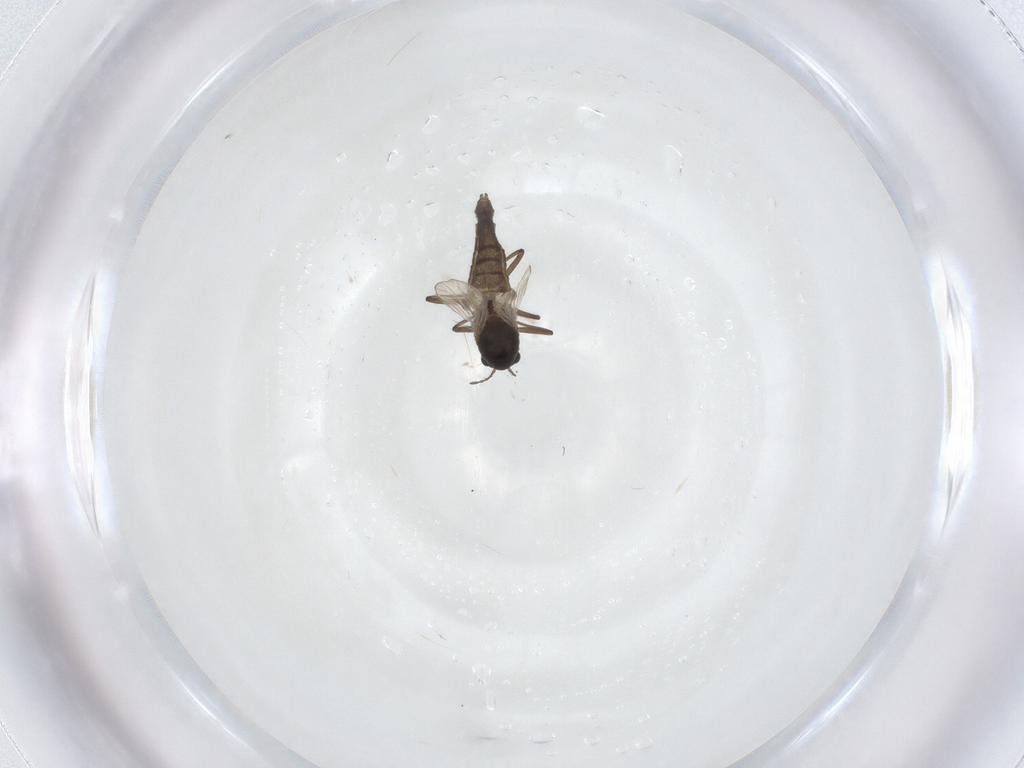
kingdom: Animalia
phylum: Arthropoda
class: Insecta
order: Diptera
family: Chironomidae
